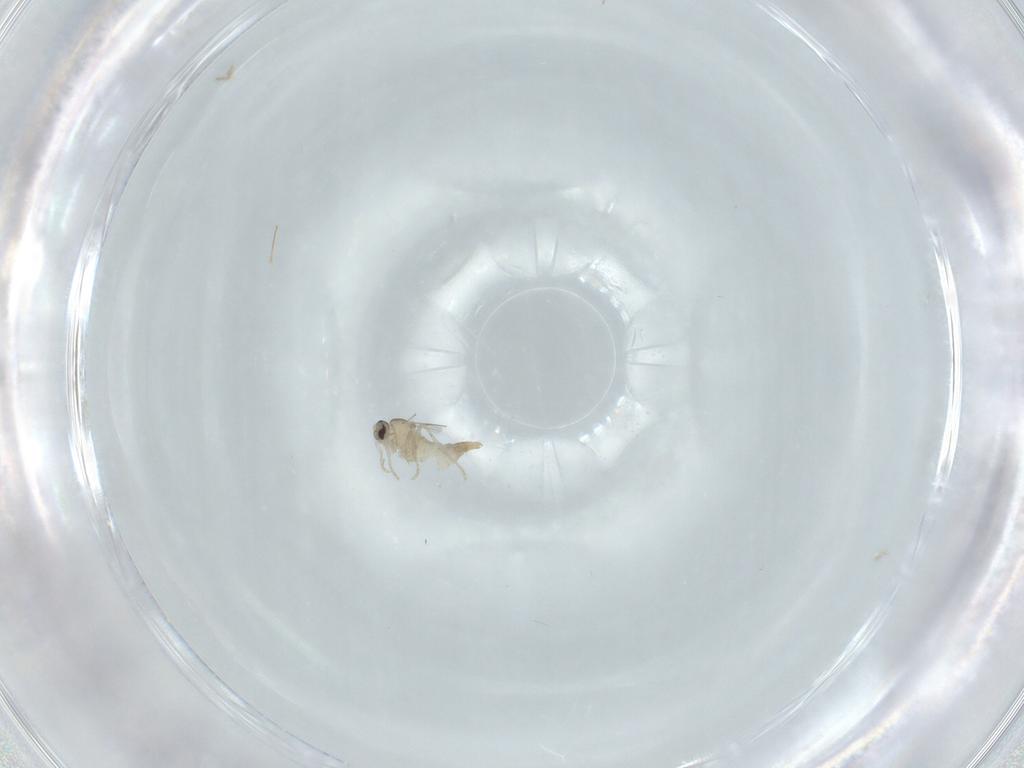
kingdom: Animalia
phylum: Arthropoda
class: Insecta
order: Diptera
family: Cecidomyiidae
